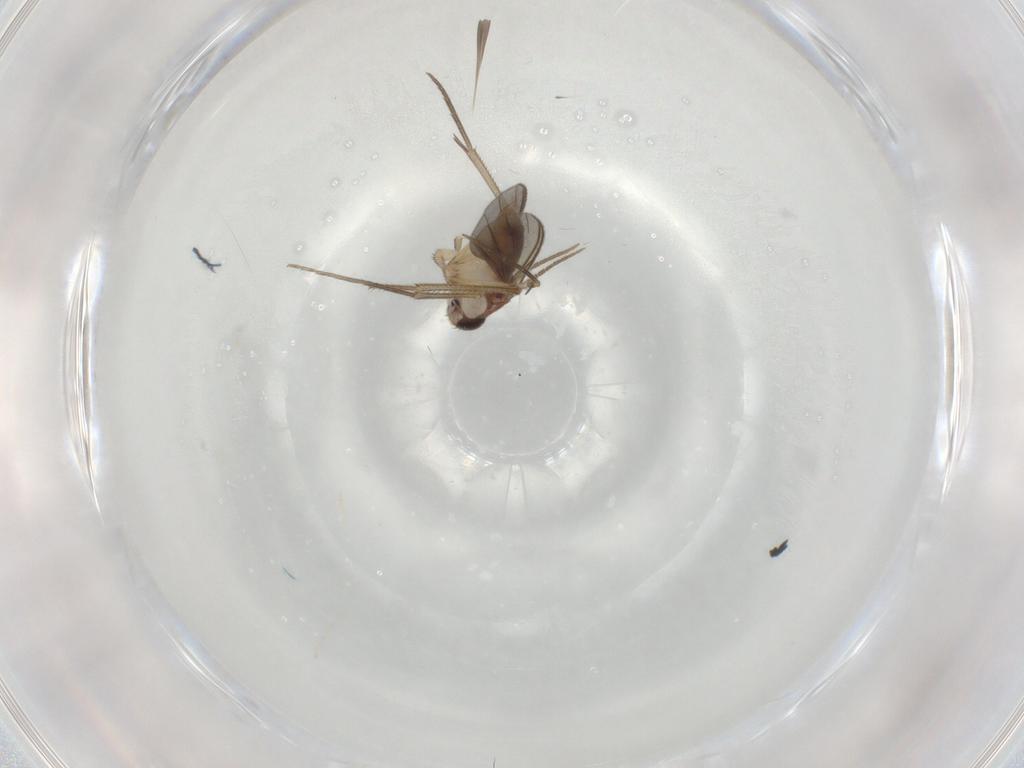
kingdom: Animalia
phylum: Arthropoda
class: Insecta
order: Diptera
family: Mycetophilidae
